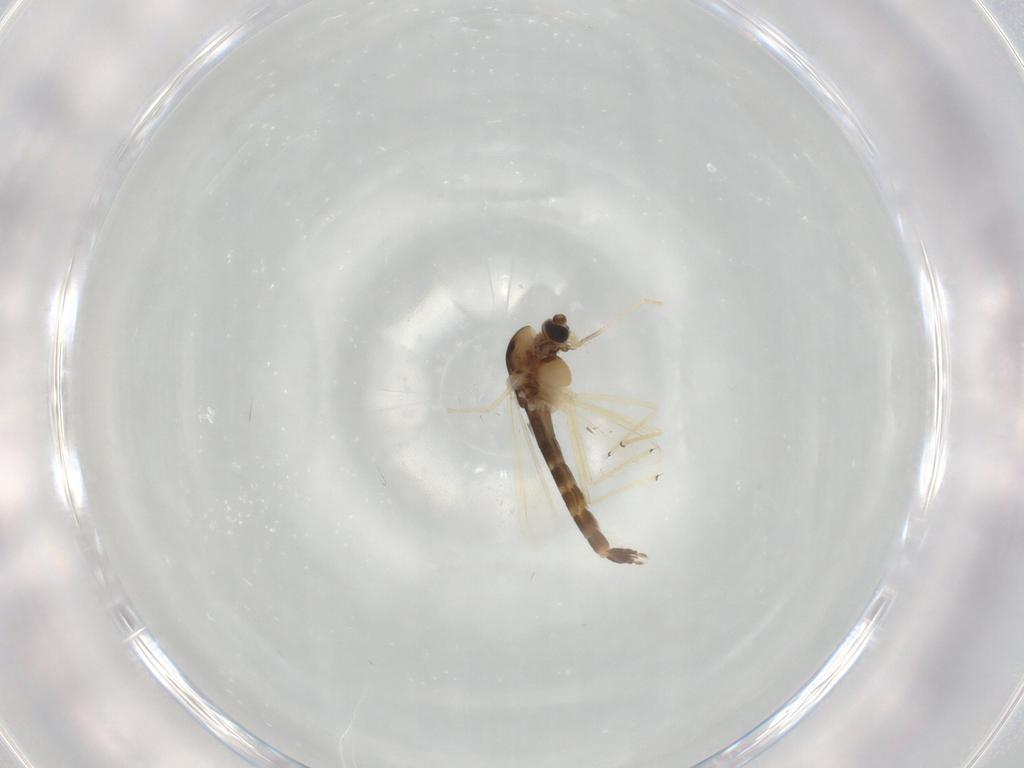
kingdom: Animalia
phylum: Arthropoda
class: Insecta
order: Diptera
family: Chironomidae
